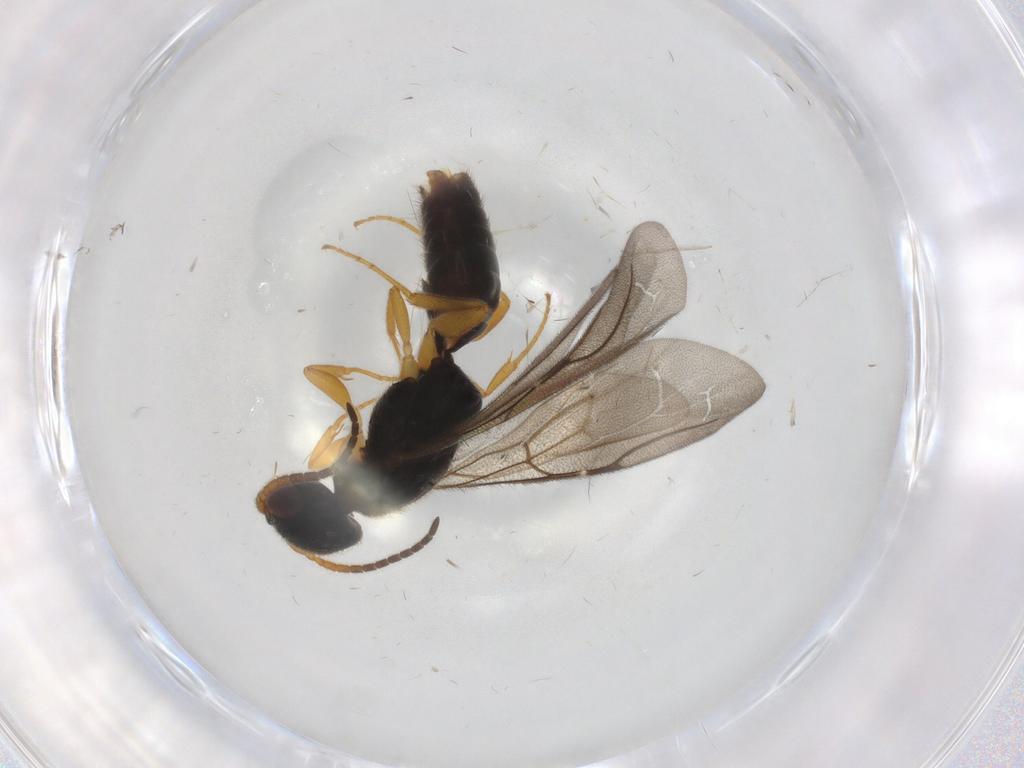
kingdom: Animalia
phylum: Arthropoda
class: Insecta
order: Hymenoptera
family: Bethylidae
